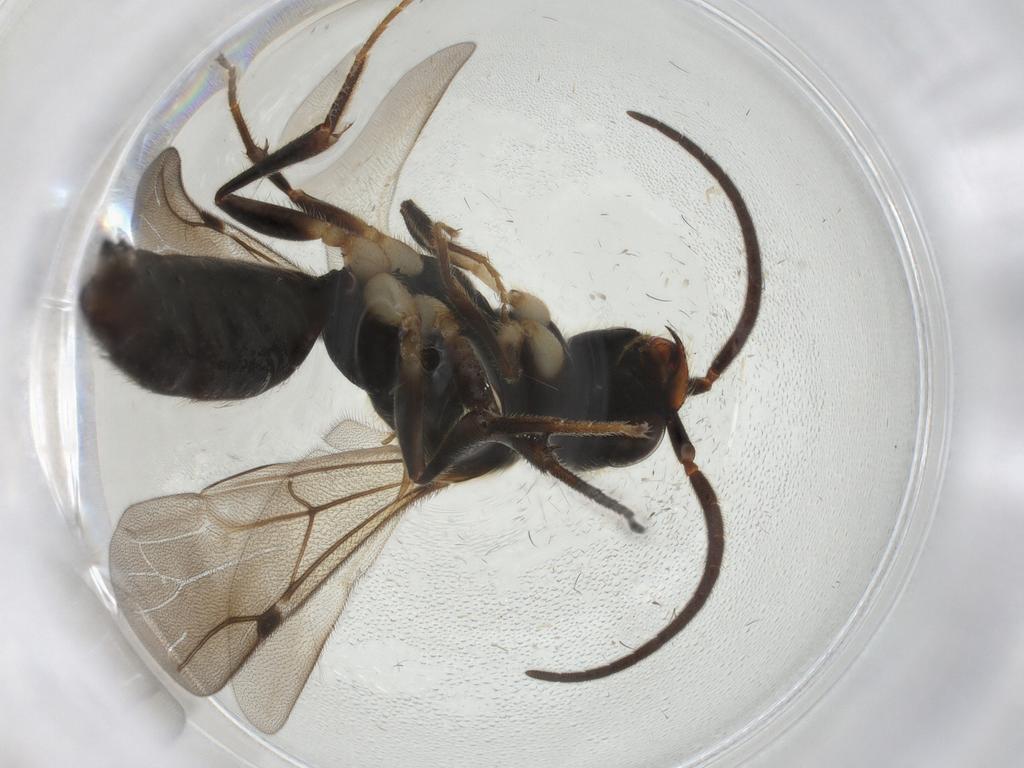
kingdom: Animalia
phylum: Arthropoda
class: Insecta
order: Hymenoptera
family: Bethylidae
